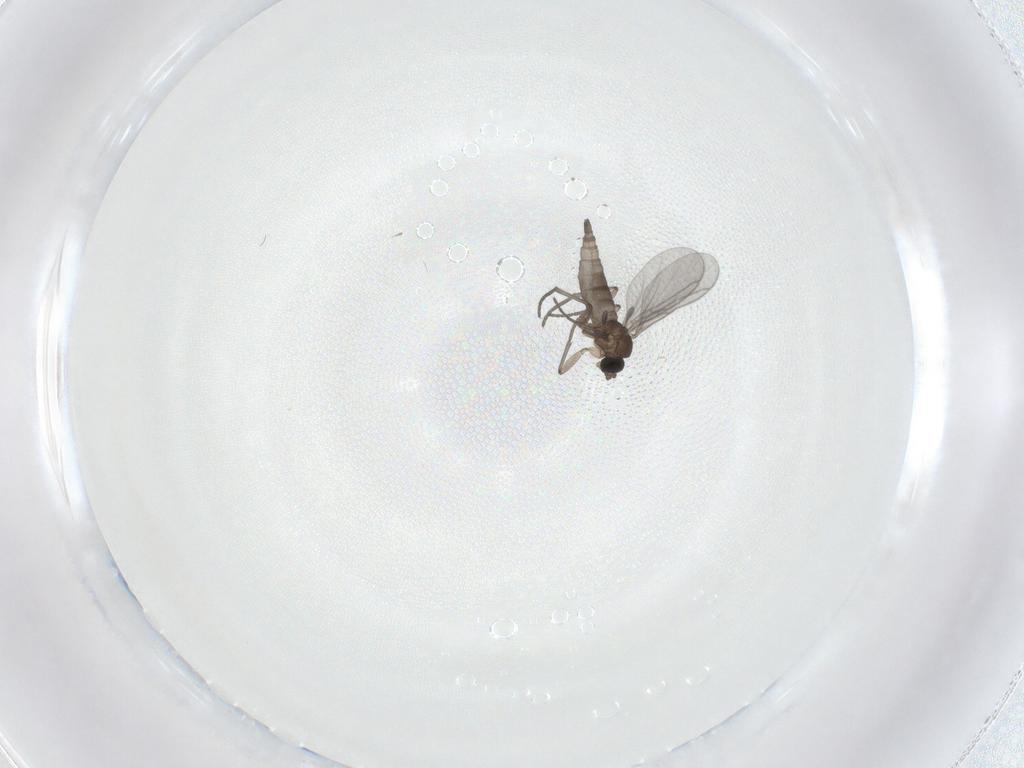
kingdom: Animalia
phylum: Arthropoda
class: Insecta
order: Diptera
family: Sciaridae
